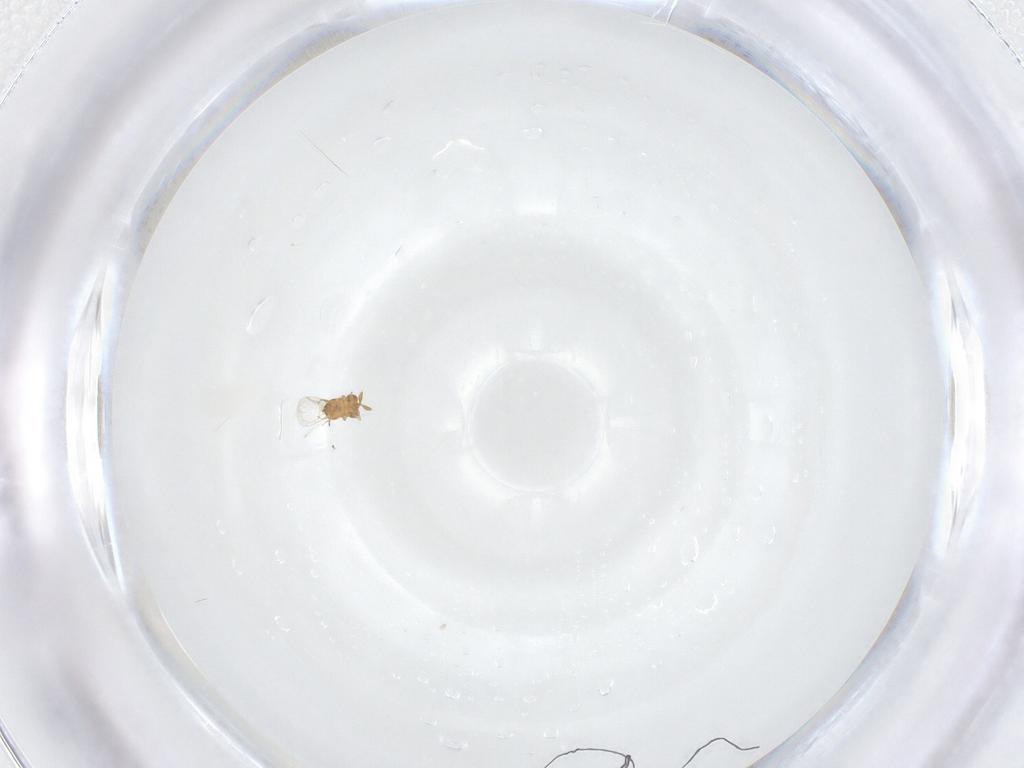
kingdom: Animalia
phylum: Arthropoda
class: Insecta
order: Hymenoptera
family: Trichogrammatidae
